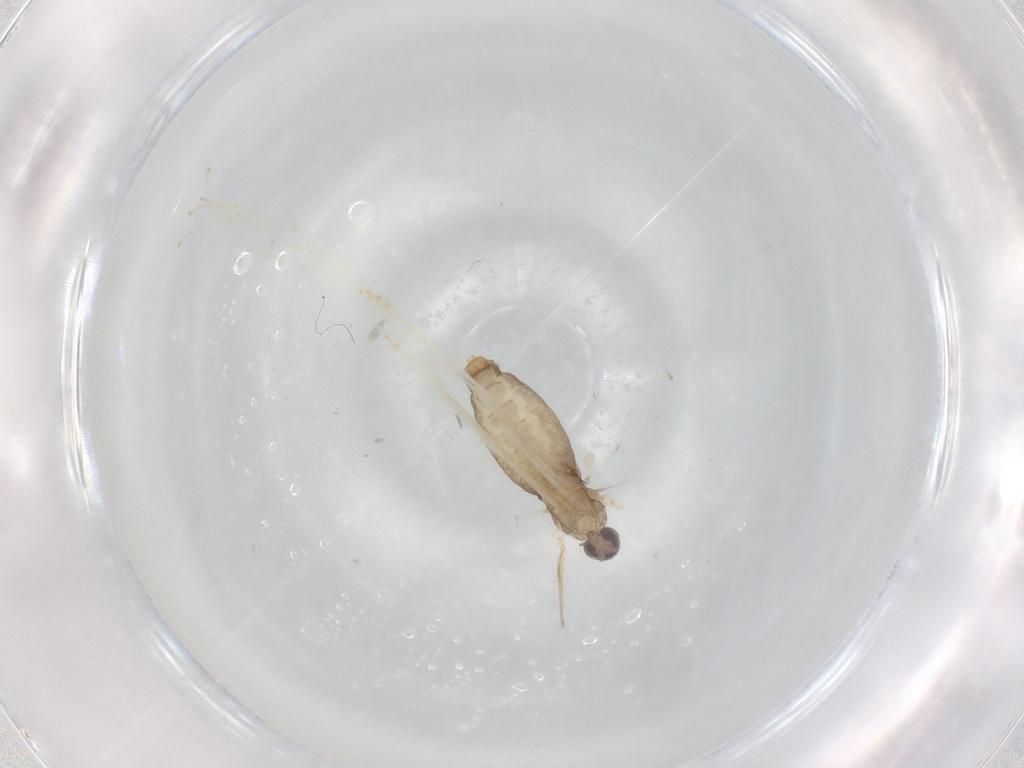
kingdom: Animalia
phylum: Arthropoda
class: Insecta
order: Diptera
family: Cecidomyiidae
